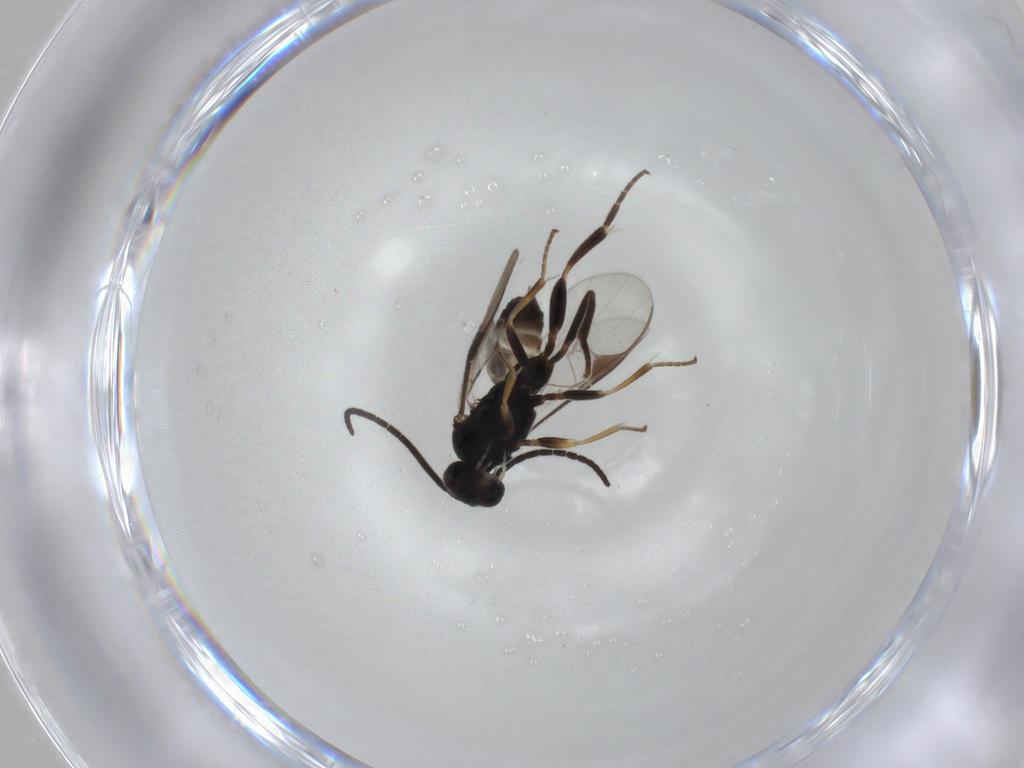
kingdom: Animalia
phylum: Arthropoda
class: Insecta
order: Hymenoptera
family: Braconidae
